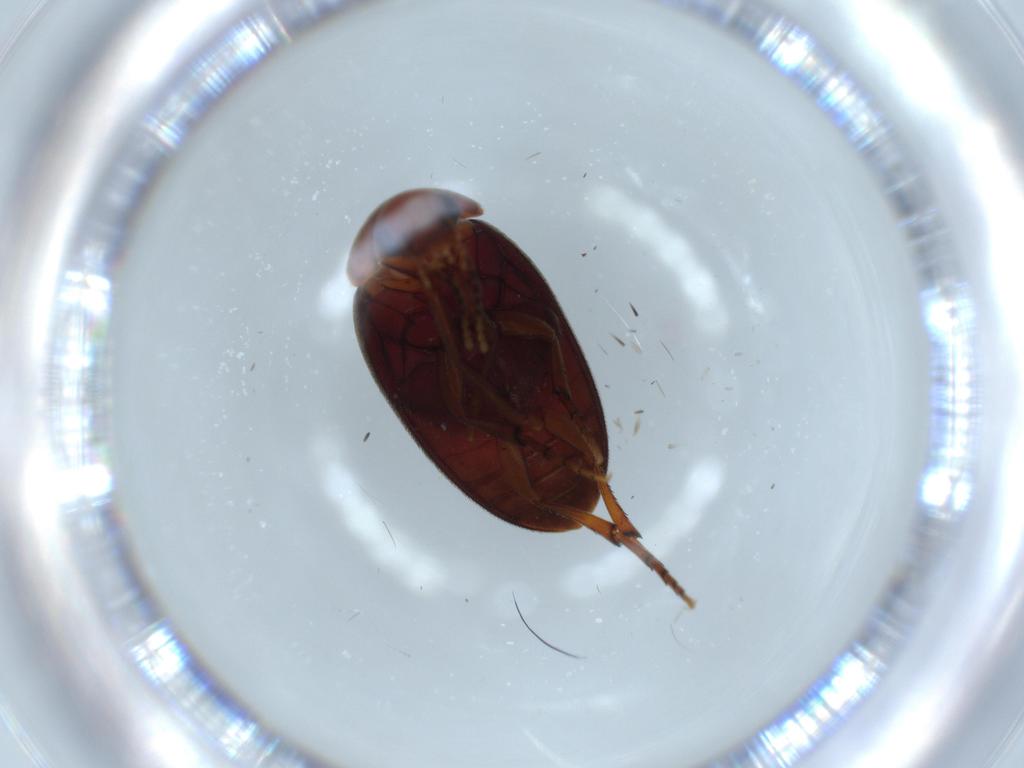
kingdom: Animalia
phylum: Arthropoda
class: Insecta
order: Coleoptera
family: Eucinetidae
